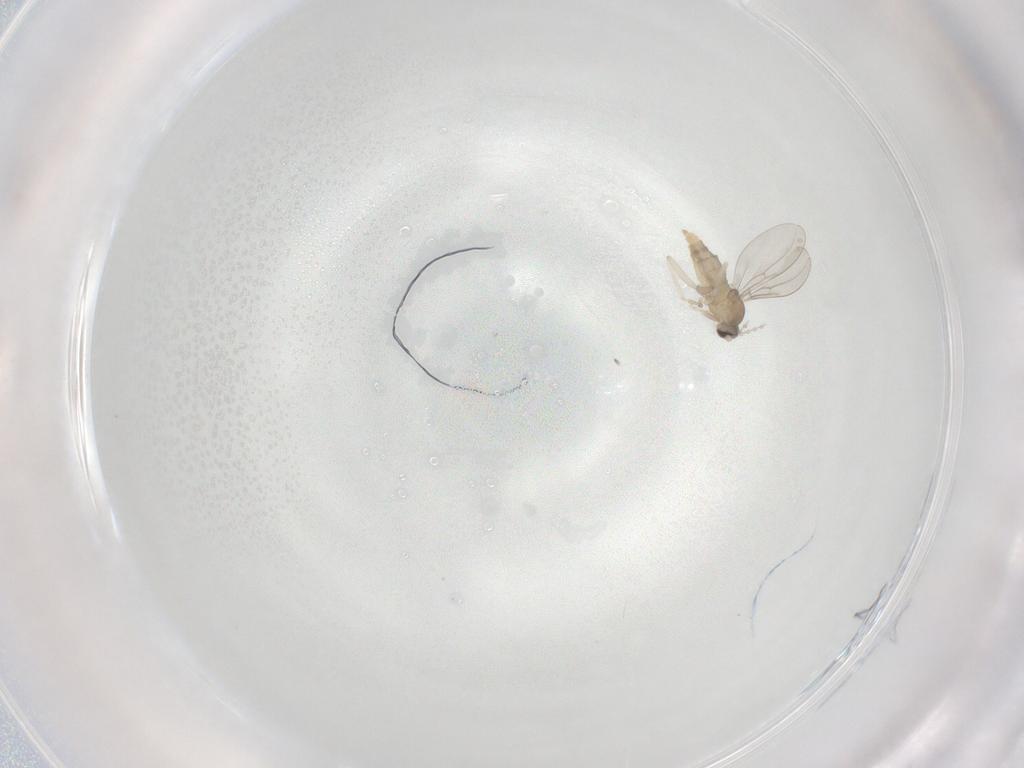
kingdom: Animalia
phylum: Arthropoda
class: Insecta
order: Diptera
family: Cecidomyiidae
